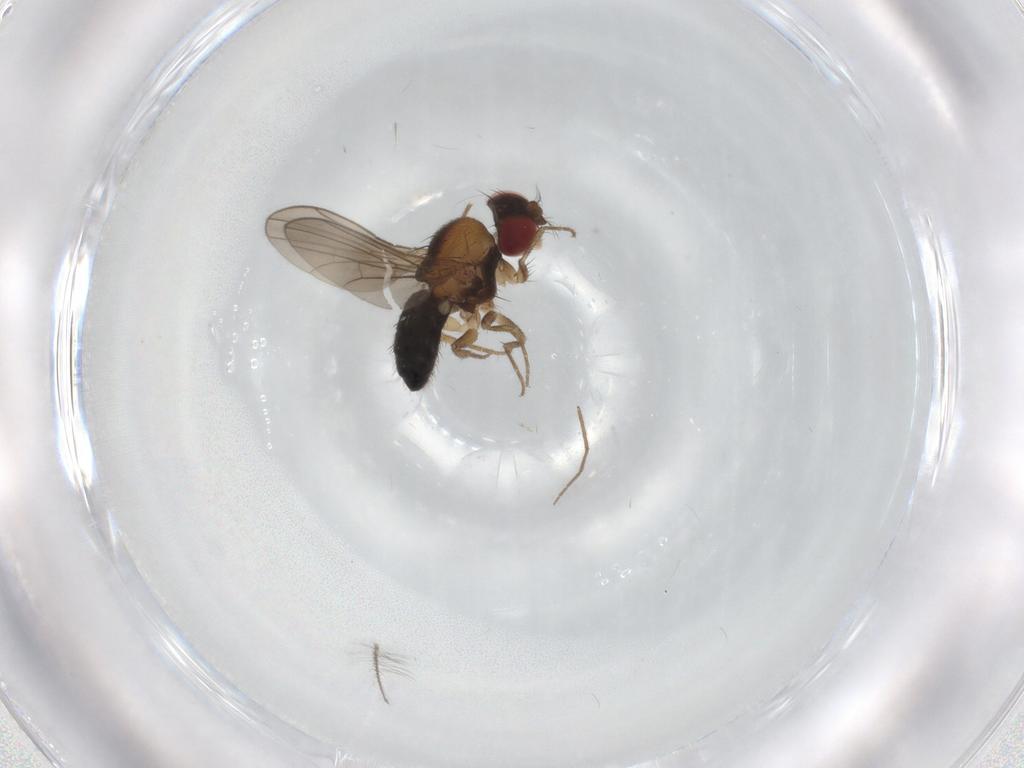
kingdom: Animalia
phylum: Arthropoda
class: Insecta
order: Diptera
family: Drosophilidae
